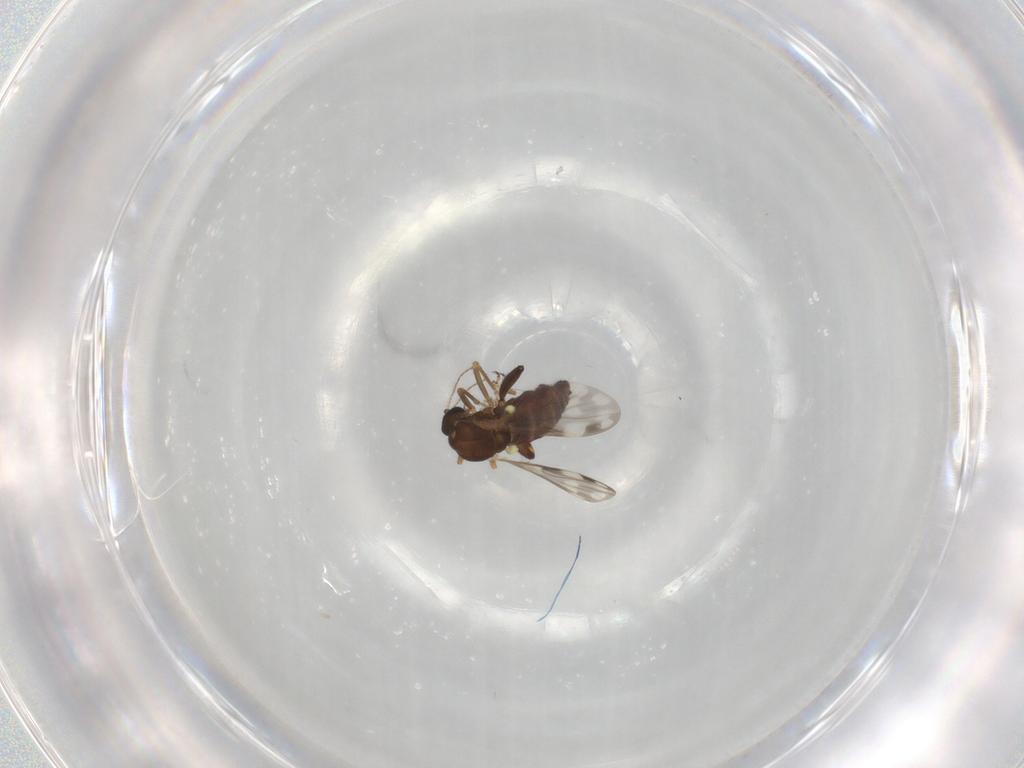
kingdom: Animalia
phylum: Arthropoda
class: Insecta
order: Diptera
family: Ceratopogonidae
